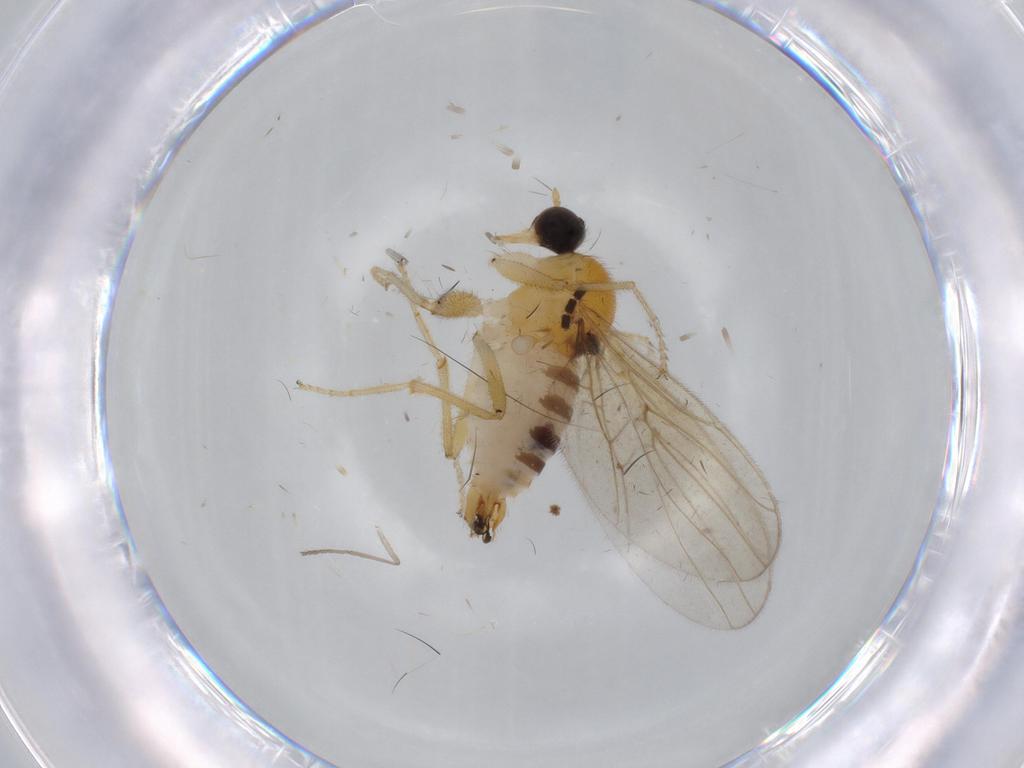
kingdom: Animalia
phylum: Arthropoda
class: Insecta
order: Diptera
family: Hybotidae
